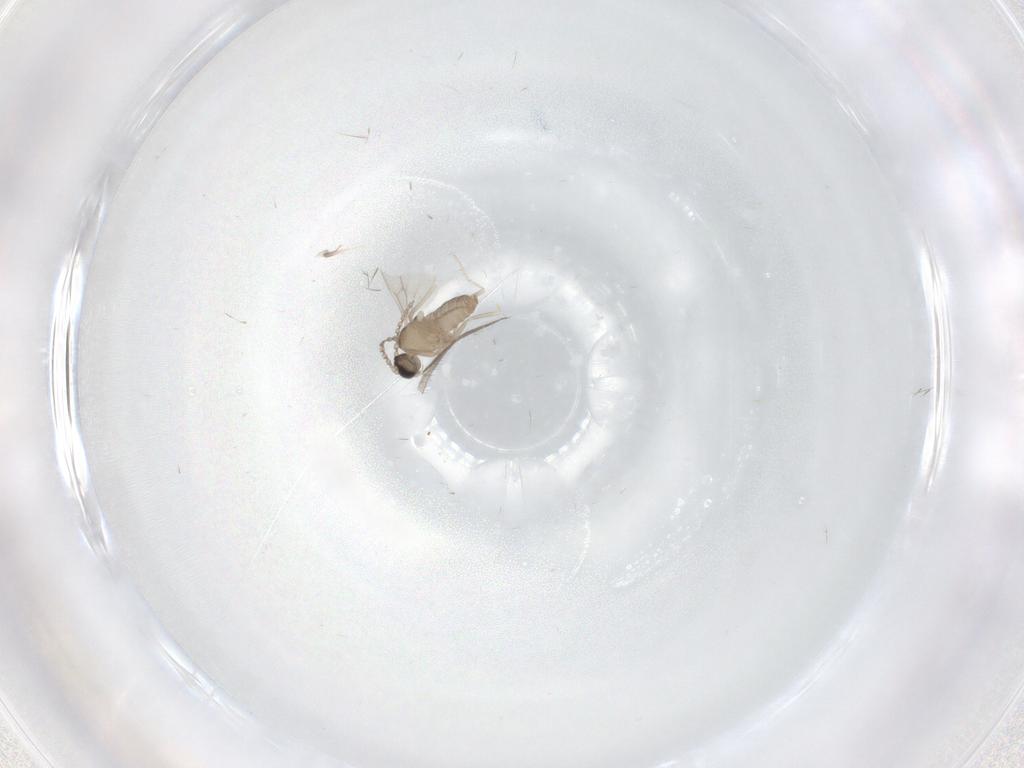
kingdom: Animalia
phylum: Arthropoda
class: Insecta
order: Diptera
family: Cecidomyiidae
